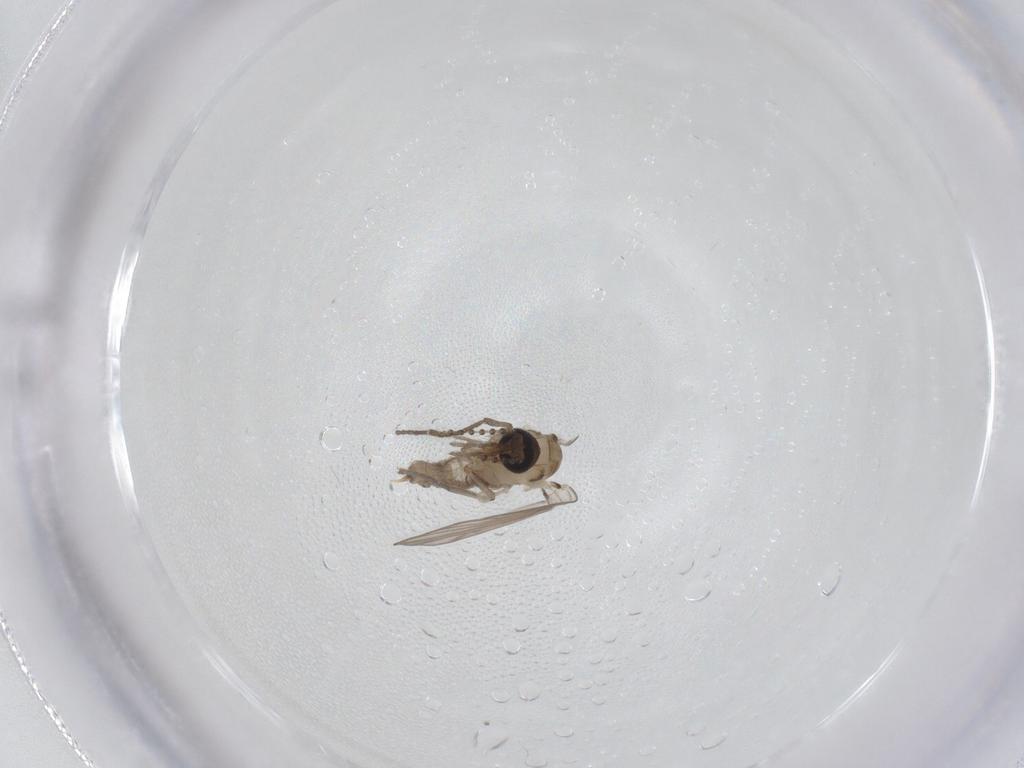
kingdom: Animalia
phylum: Arthropoda
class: Insecta
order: Diptera
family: Psychodidae
